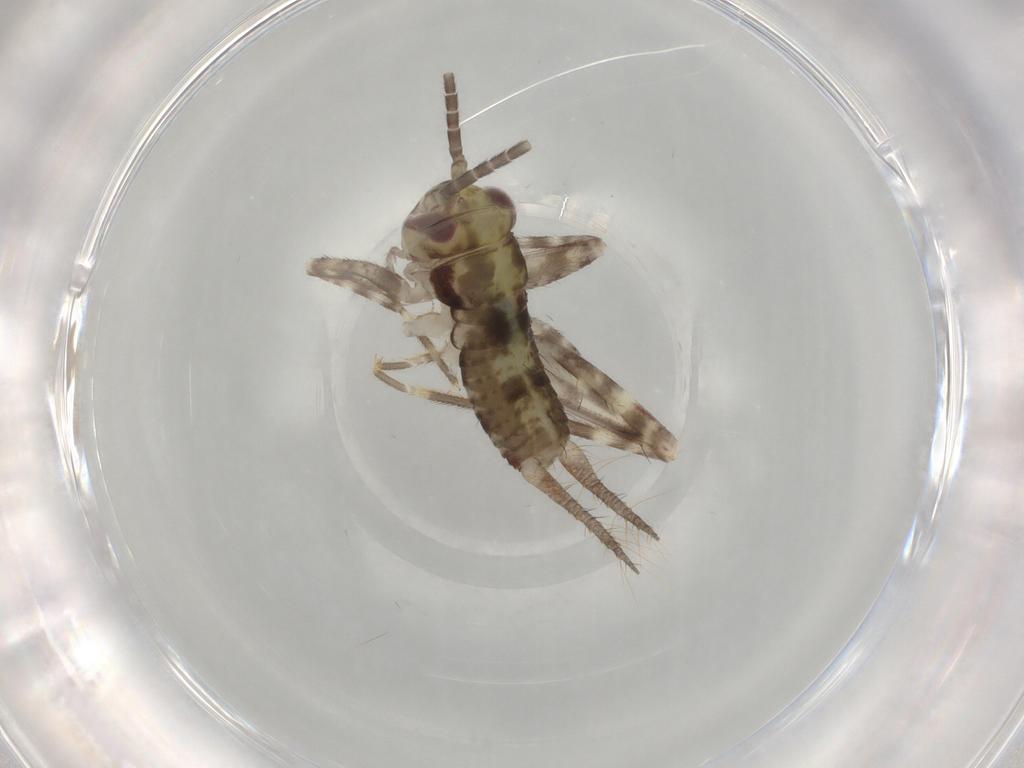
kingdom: Animalia
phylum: Arthropoda
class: Insecta
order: Orthoptera
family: Gryllidae
